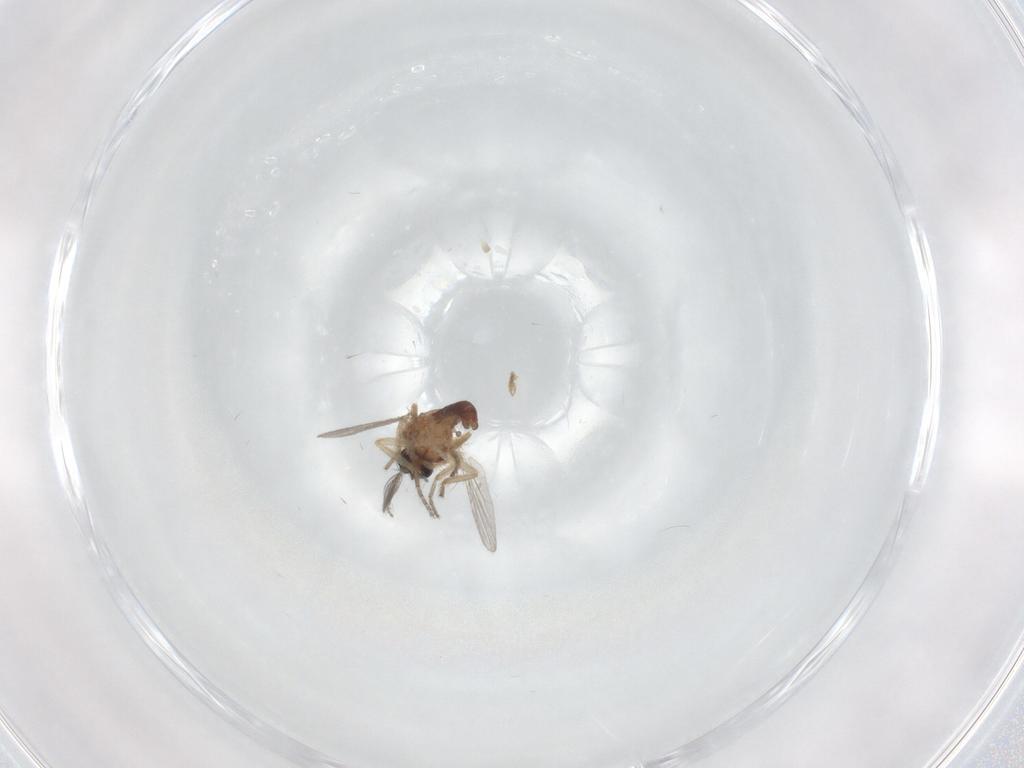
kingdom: Animalia
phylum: Arthropoda
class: Insecta
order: Diptera
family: Ceratopogonidae
